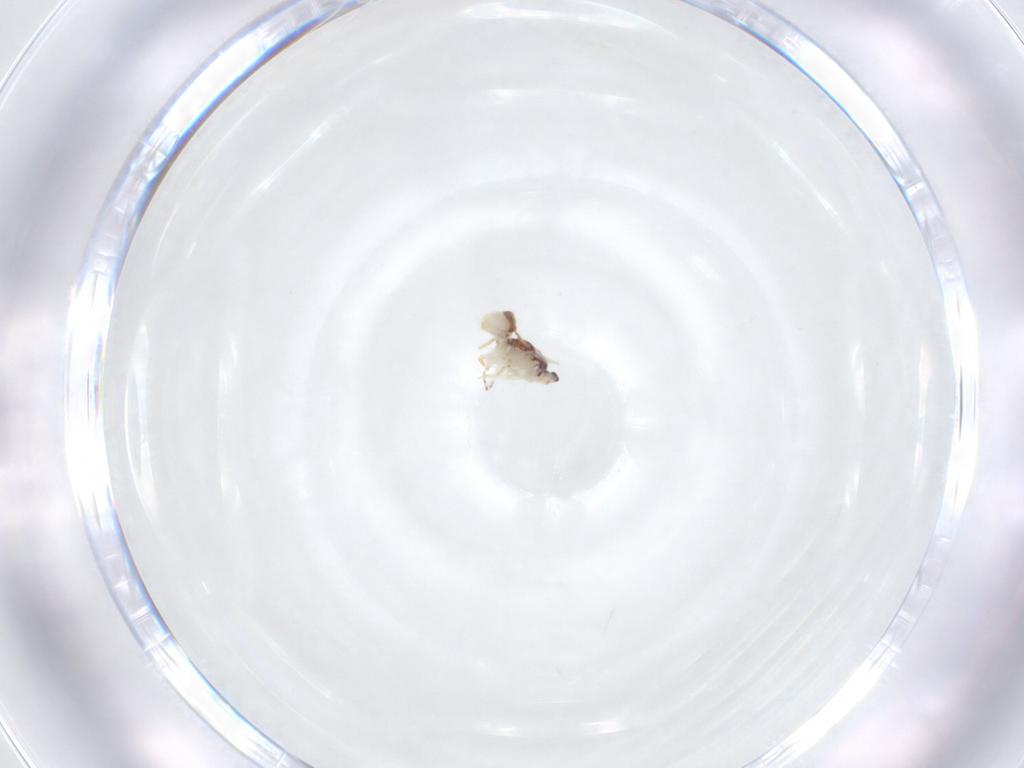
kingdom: Animalia
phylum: Arthropoda
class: Collembola
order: Symphypleona
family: Bourletiellidae
